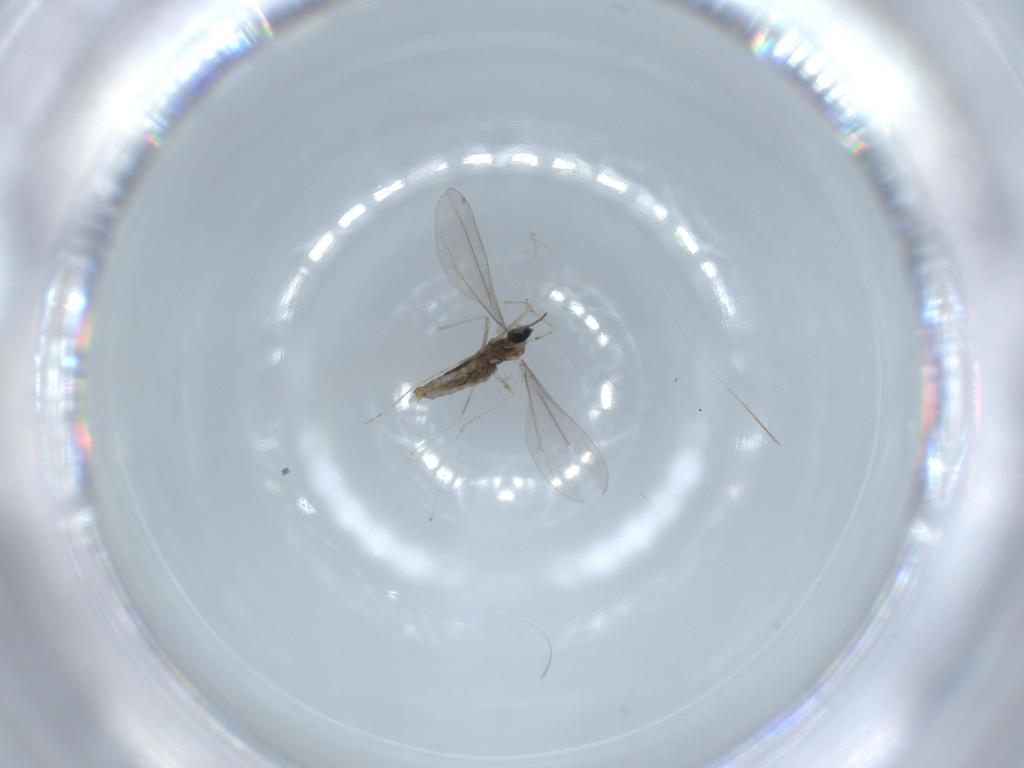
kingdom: Animalia
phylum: Arthropoda
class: Insecta
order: Diptera
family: Cecidomyiidae
